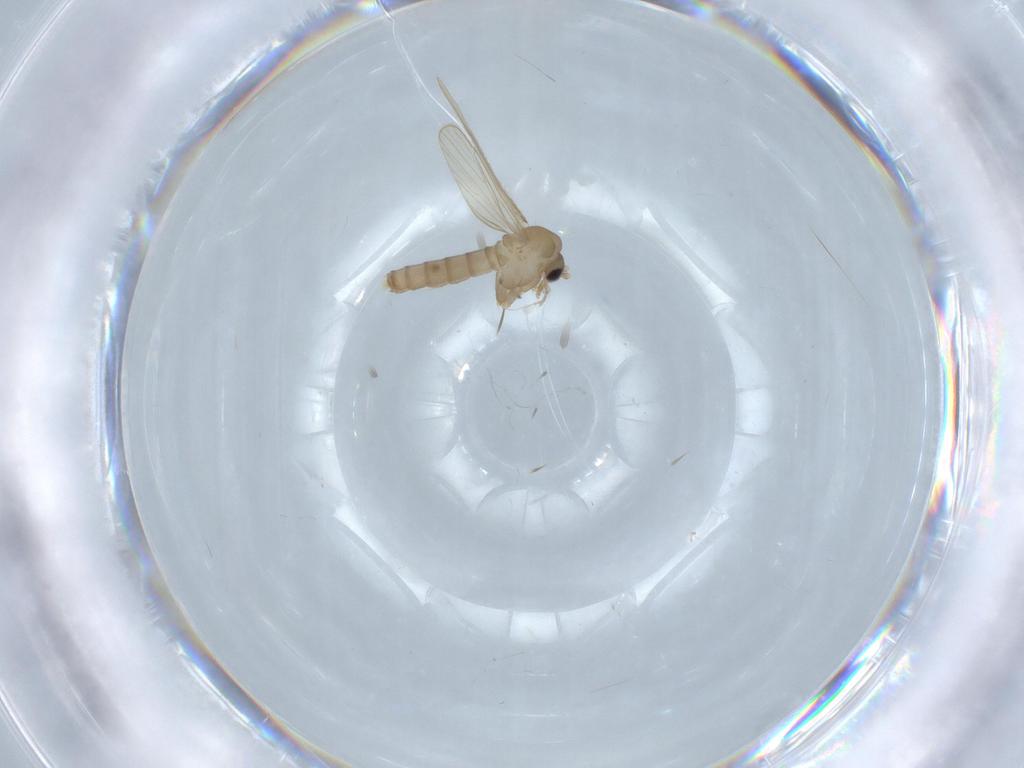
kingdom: Animalia
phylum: Arthropoda
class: Insecta
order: Diptera
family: Psychodidae
